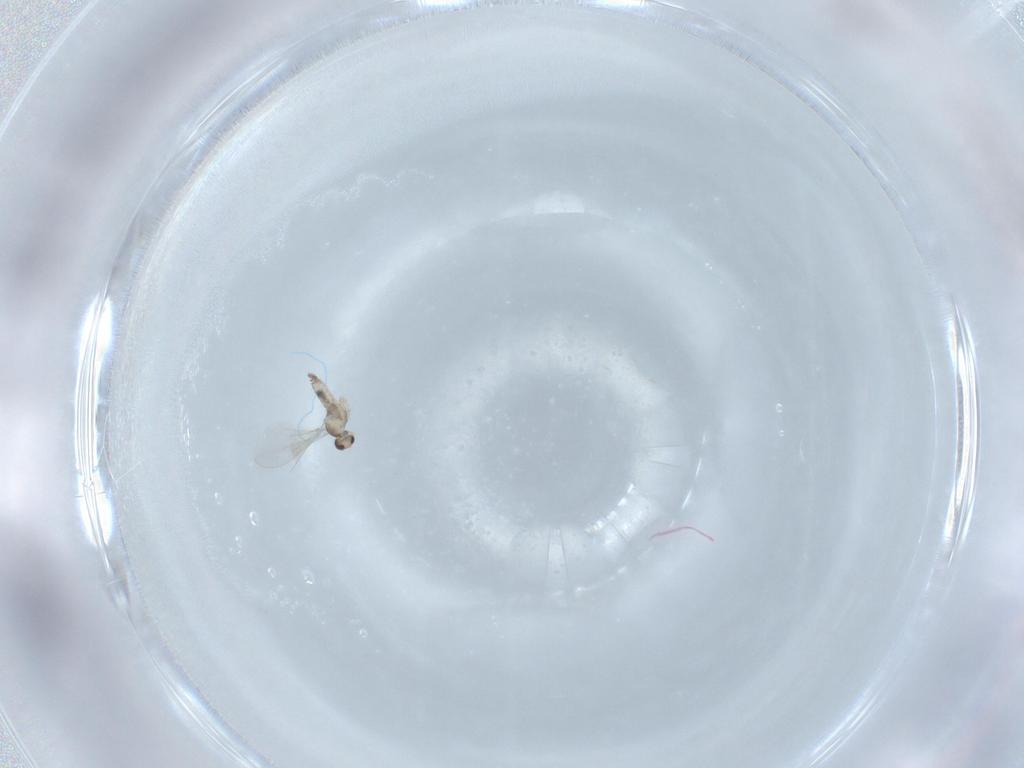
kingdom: Animalia
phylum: Arthropoda
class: Insecta
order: Diptera
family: Cecidomyiidae
